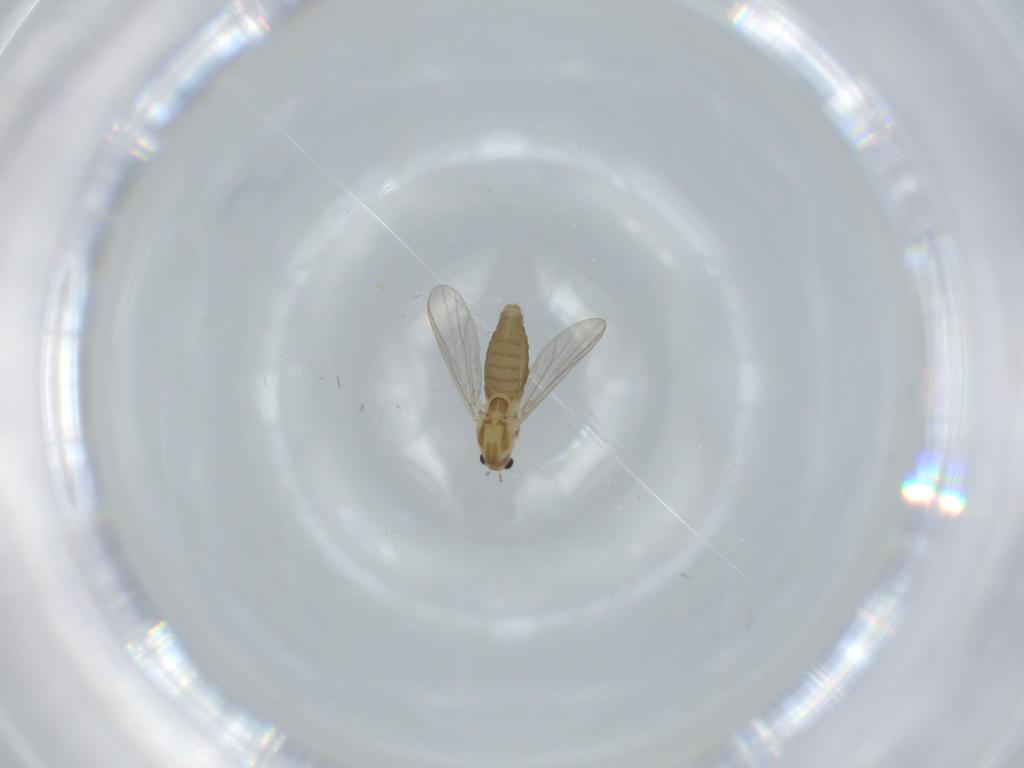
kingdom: Animalia
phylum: Arthropoda
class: Insecta
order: Diptera
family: Chironomidae
